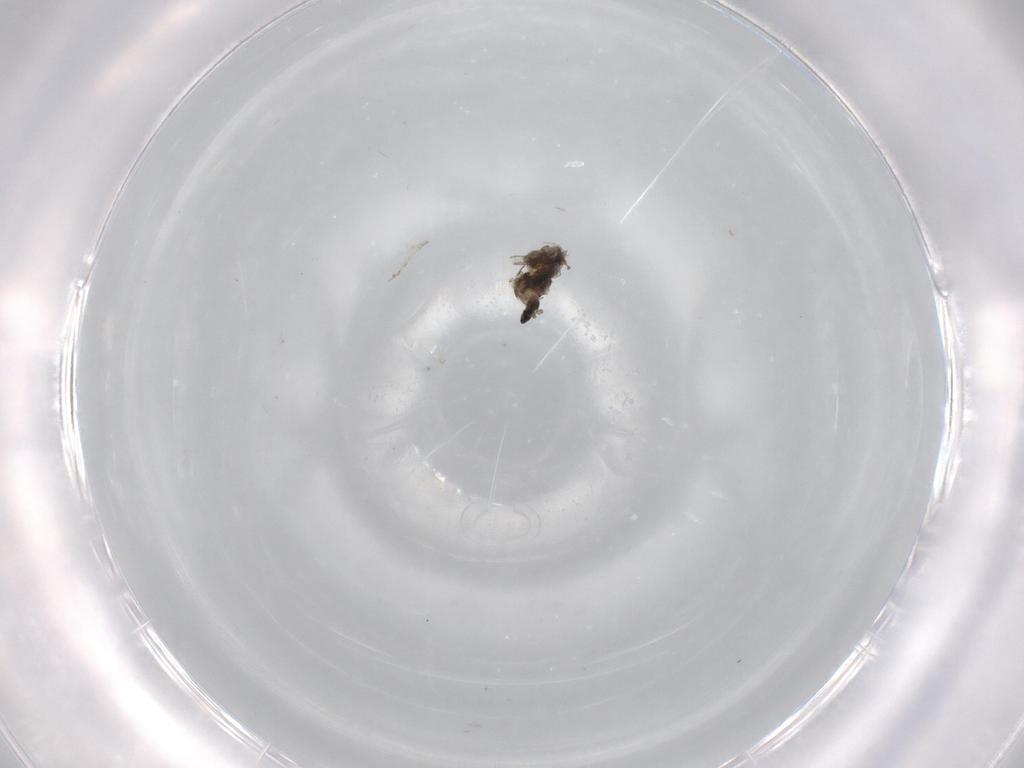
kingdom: Animalia
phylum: Arthropoda
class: Insecta
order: Diptera
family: Cecidomyiidae
